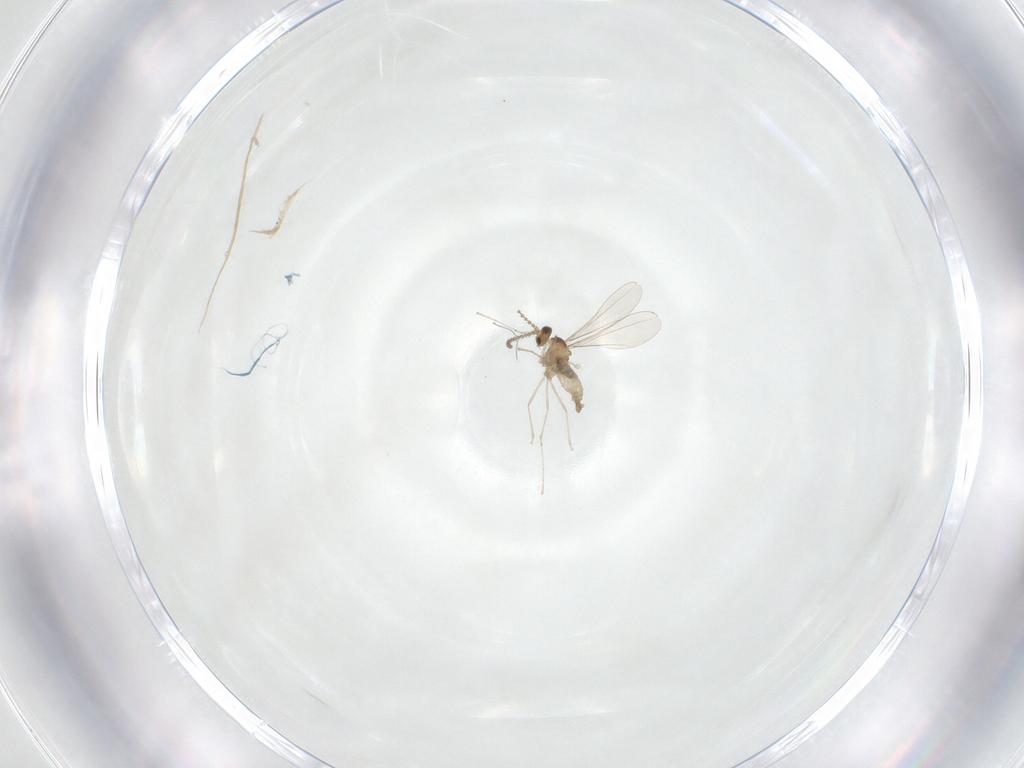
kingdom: Animalia
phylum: Arthropoda
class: Insecta
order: Diptera
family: Cecidomyiidae
